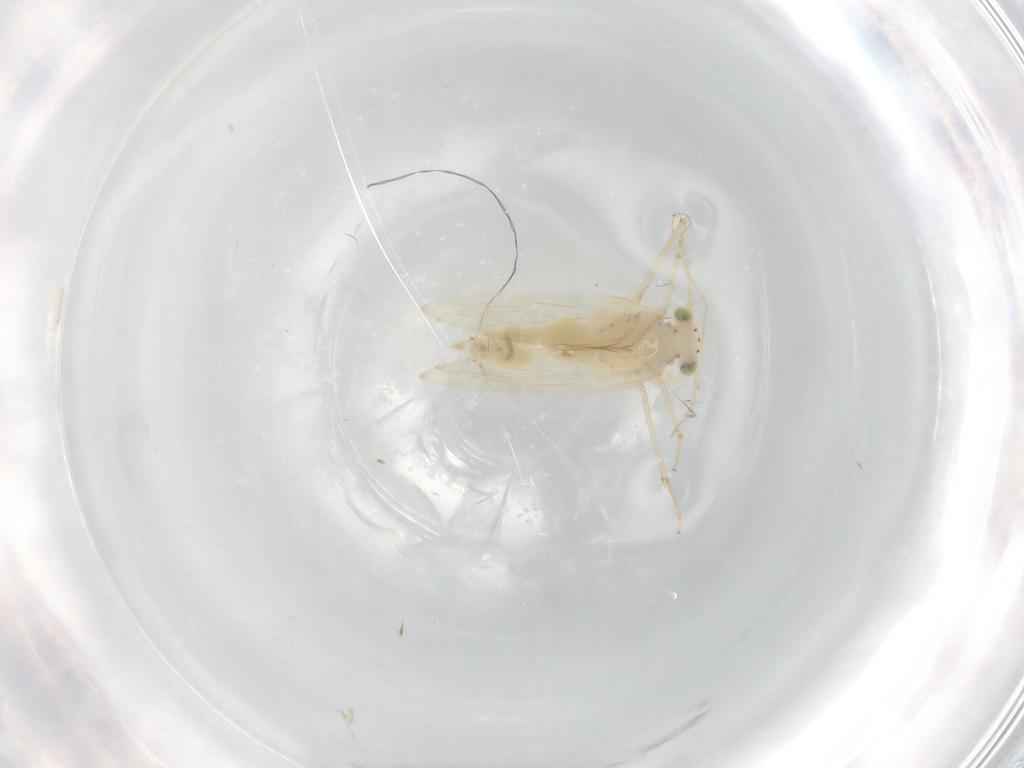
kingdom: Animalia
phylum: Arthropoda
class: Insecta
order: Psocodea
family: Lepidopsocidae
